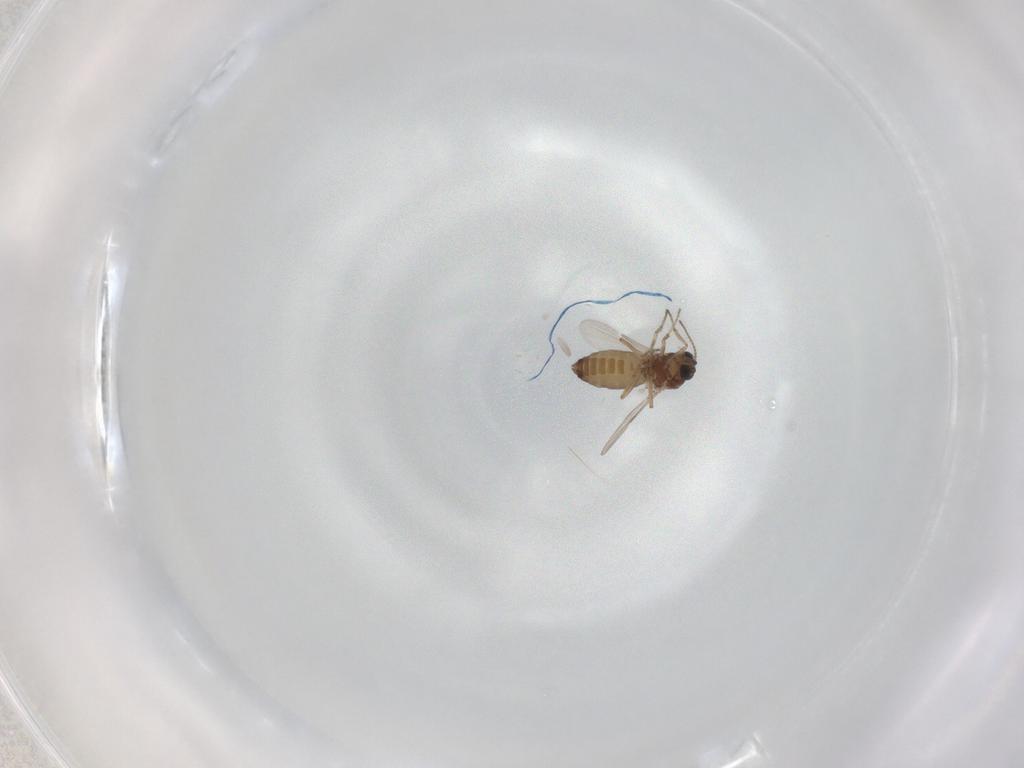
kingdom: Animalia
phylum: Arthropoda
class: Insecta
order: Diptera
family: Ceratopogonidae
